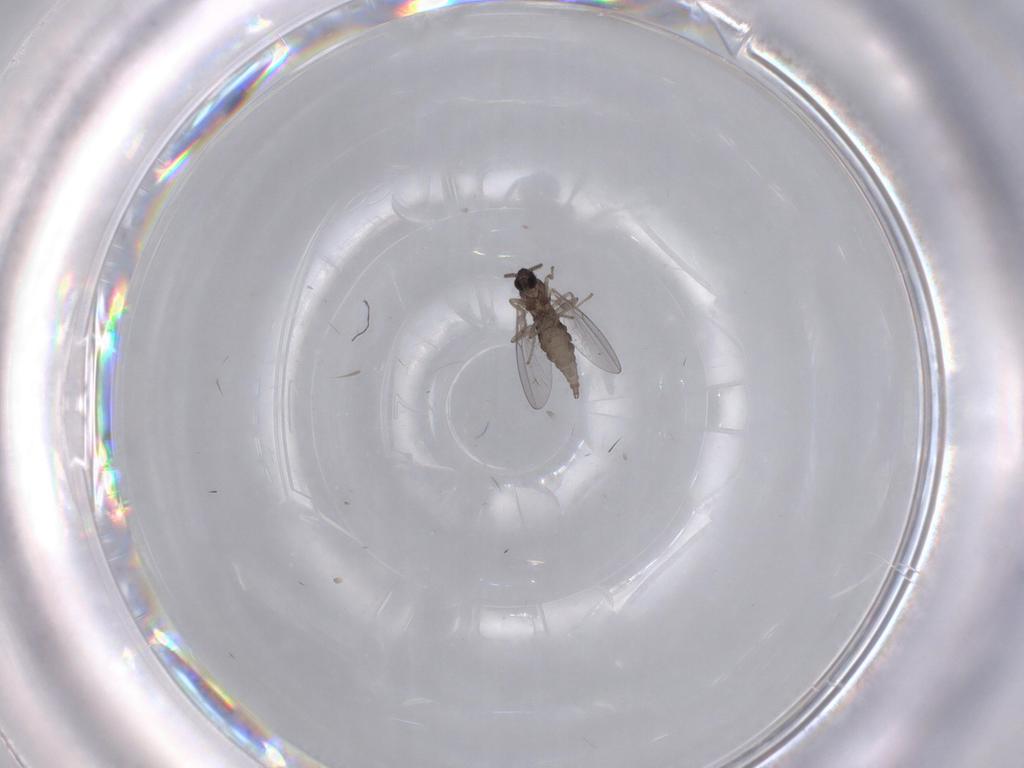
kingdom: Animalia
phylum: Arthropoda
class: Insecta
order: Diptera
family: Cecidomyiidae
